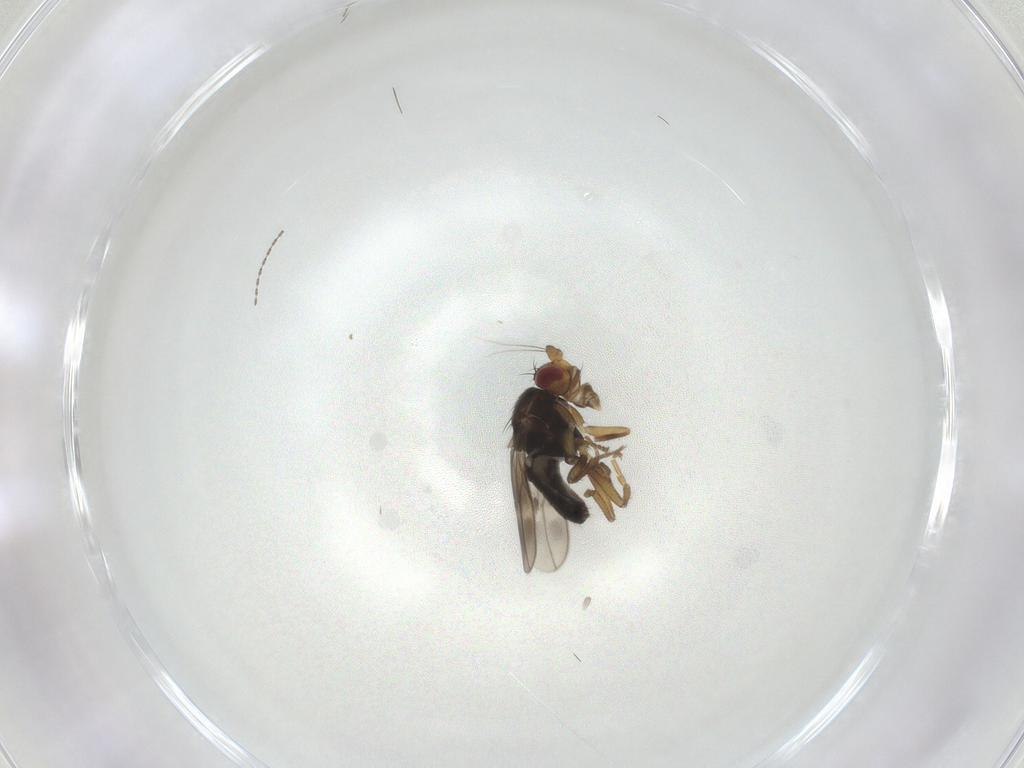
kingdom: Animalia
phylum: Arthropoda
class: Insecta
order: Diptera
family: Sphaeroceridae
